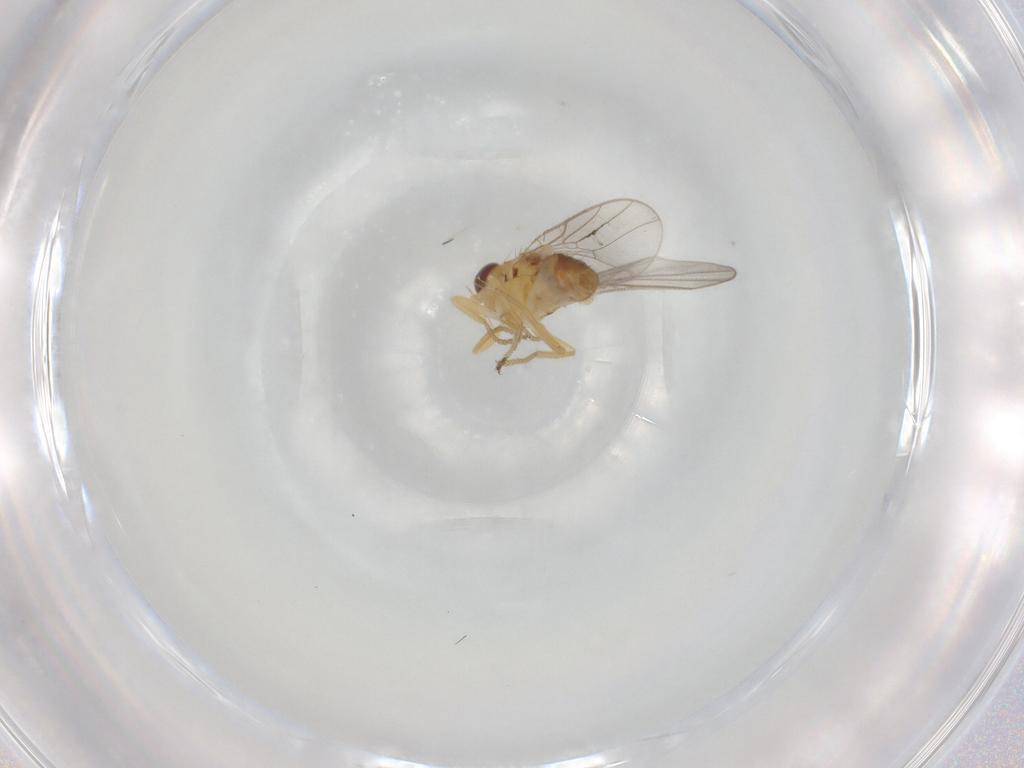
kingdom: Animalia
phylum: Arthropoda
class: Insecta
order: Diptera
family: Chloropidae
